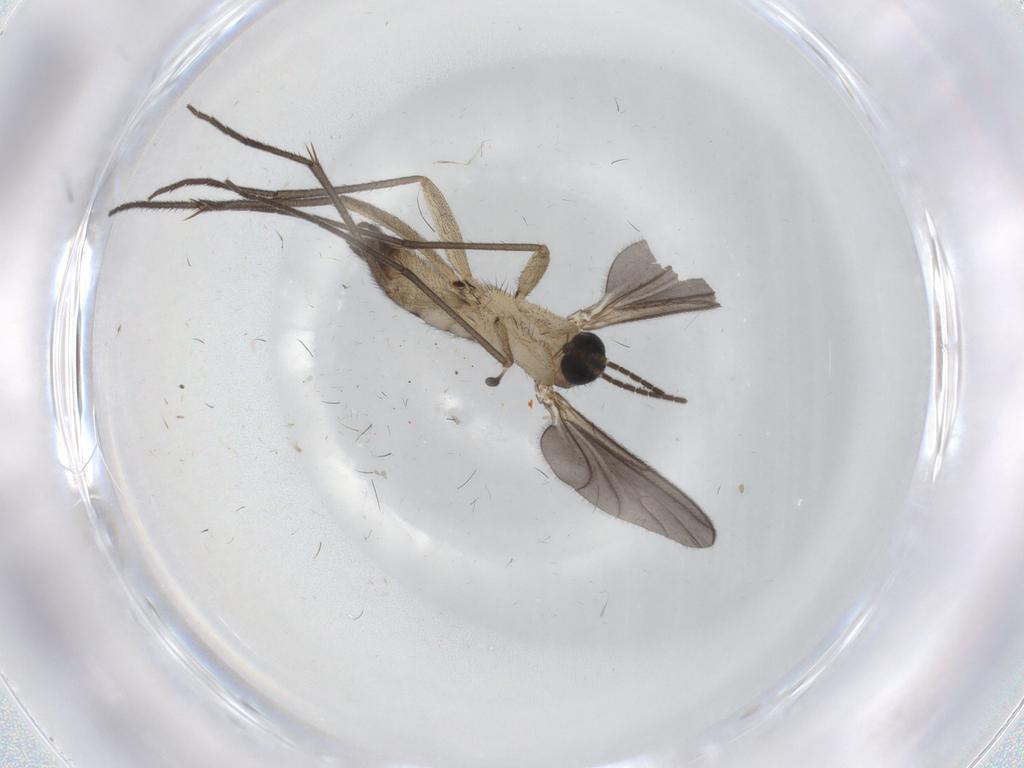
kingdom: Animalia
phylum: Arthropoda
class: Insecta
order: Diptera
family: Sciaridae
